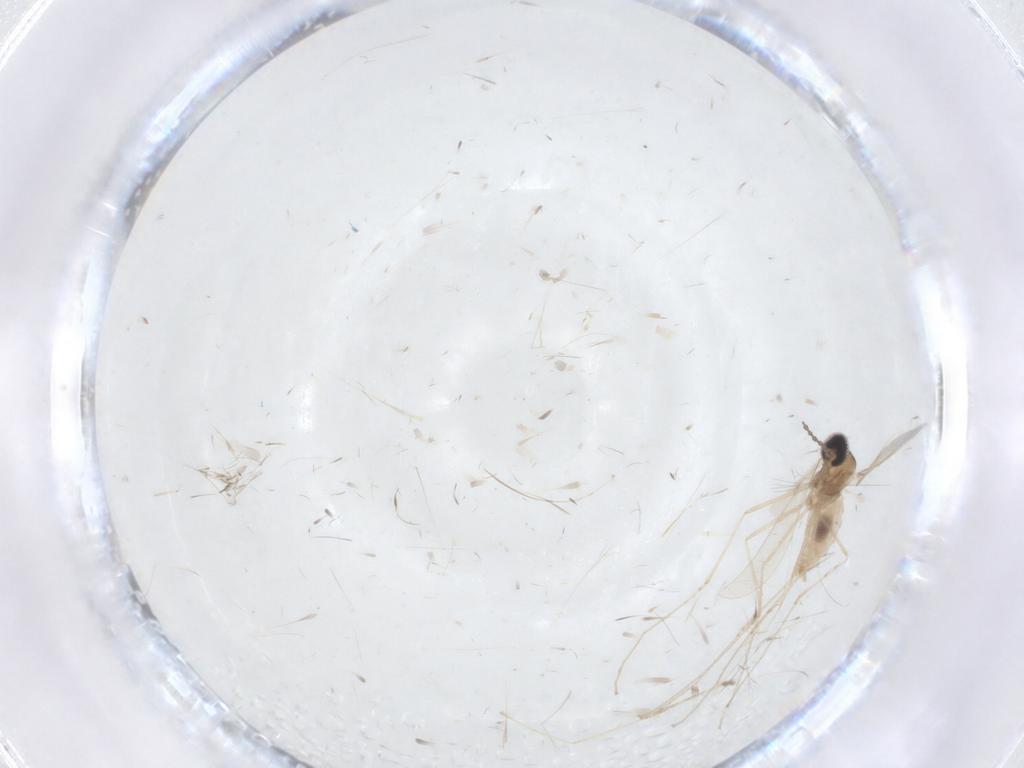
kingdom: Animalia
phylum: Arthropoda
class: Insecta
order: Diptera
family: Cecidomyiidae
